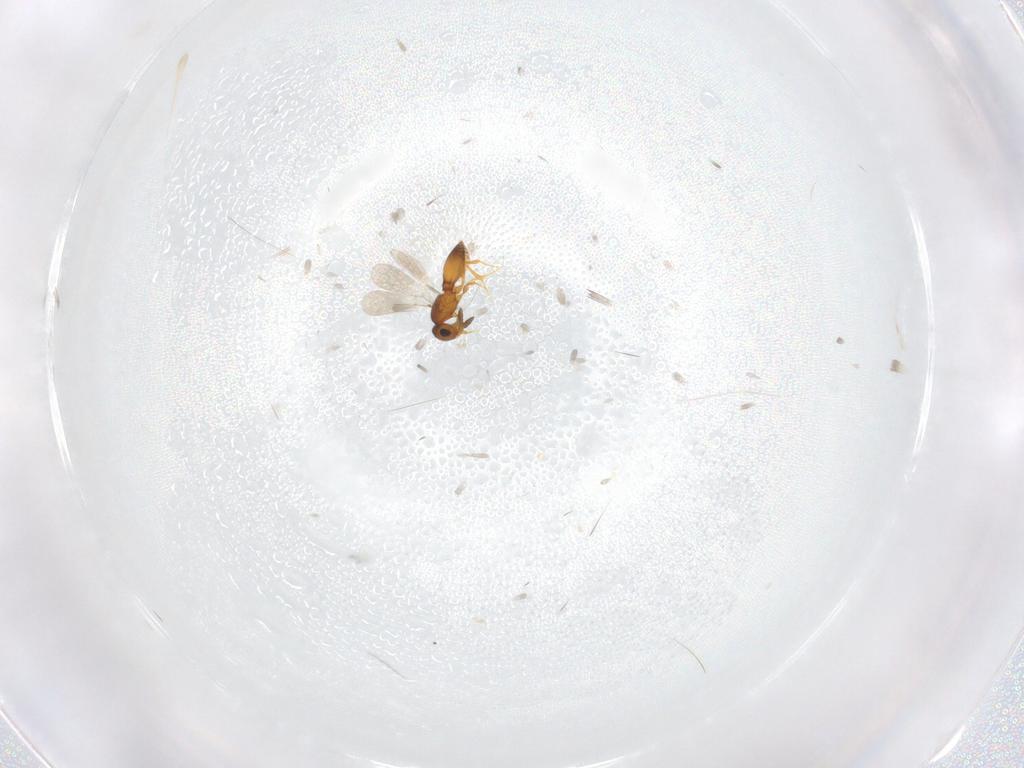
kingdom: Animalia
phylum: Arthropoda
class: Insecta
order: Hymenoptera
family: Platygastridae
